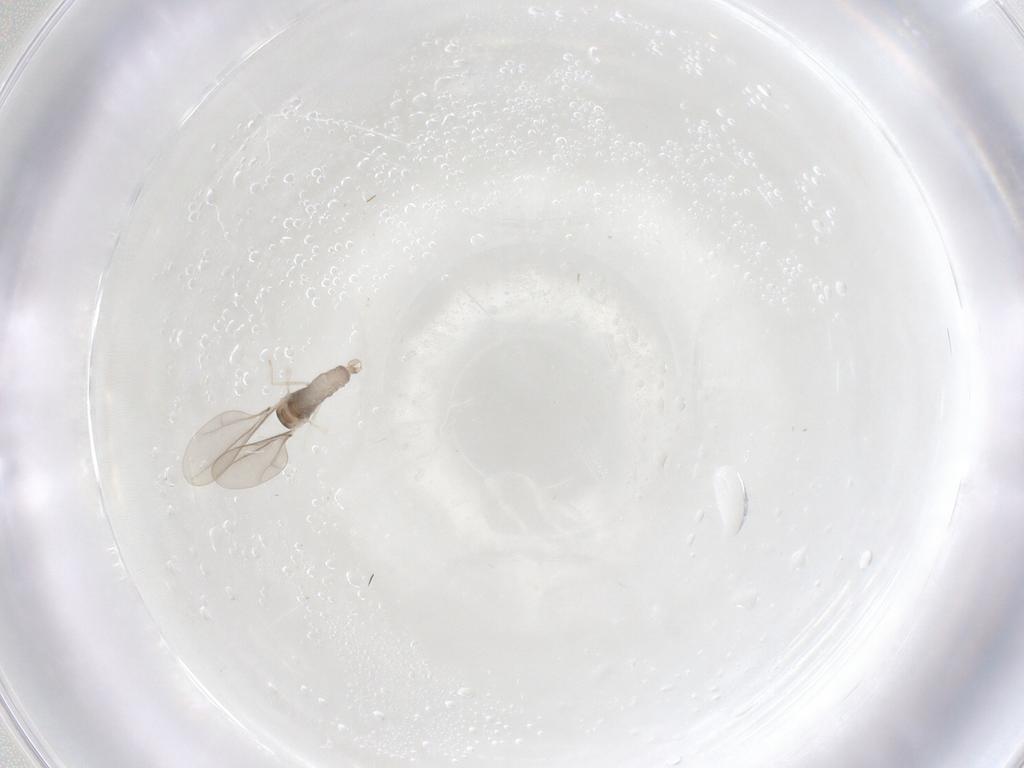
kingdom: Animalia
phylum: Arthropoda
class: Insecta
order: Diptera
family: Cecidomyiidae
